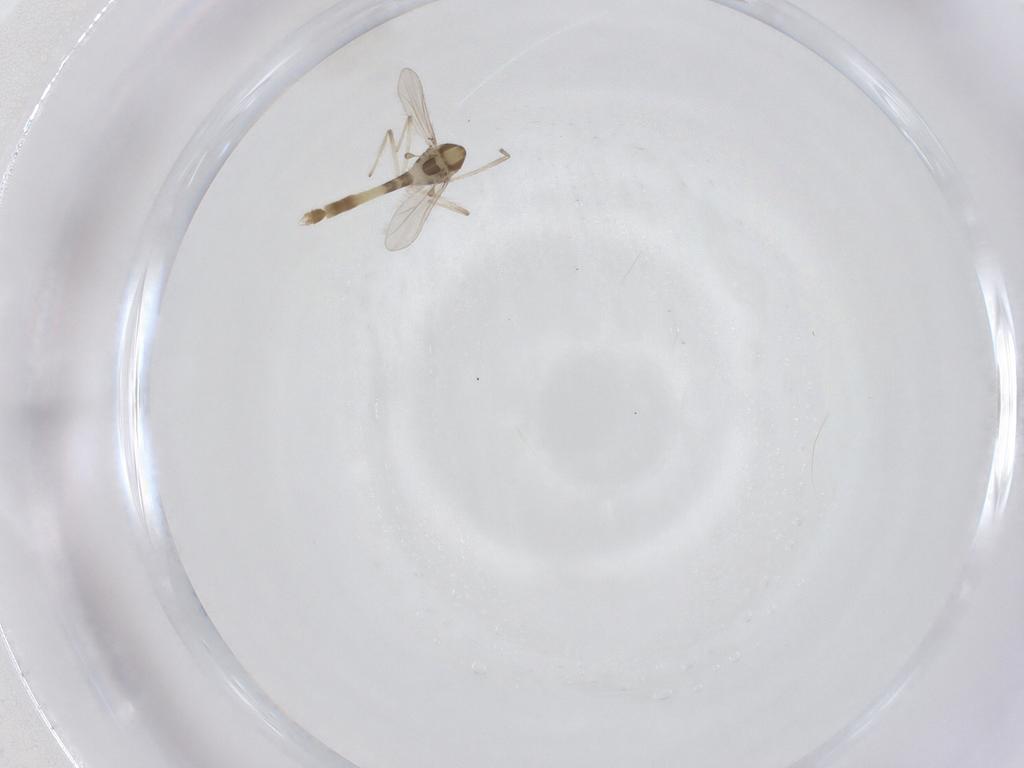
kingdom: Animalia
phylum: Arthropoda
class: Insecta
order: Diptera
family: Chironomidae
